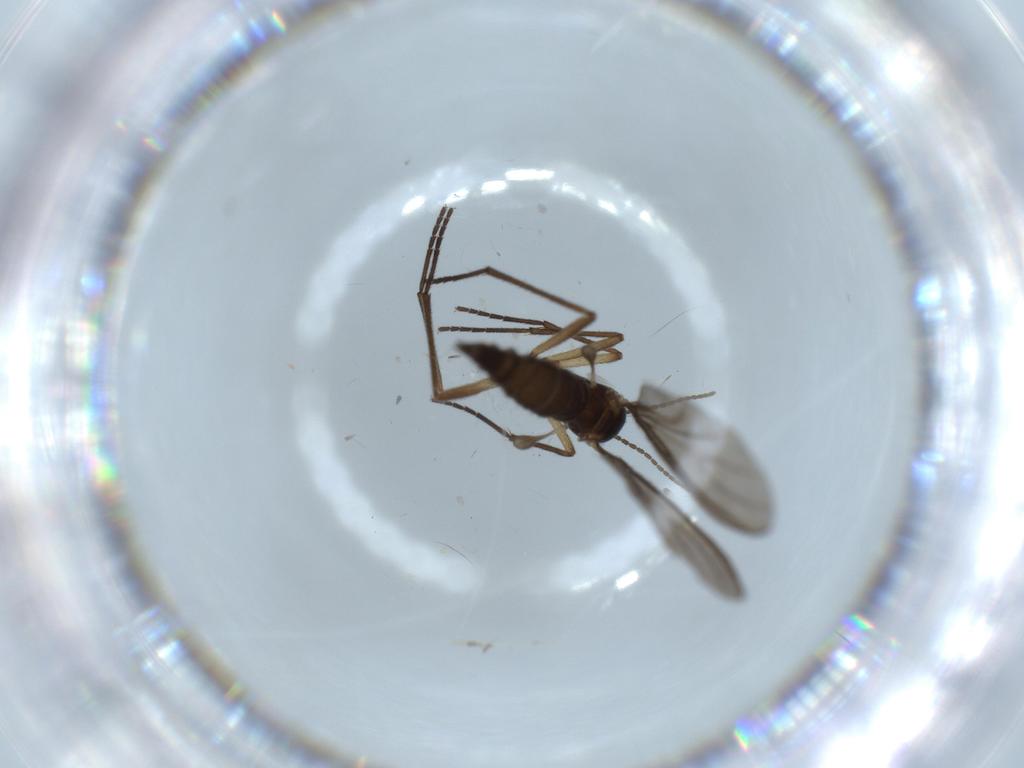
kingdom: Animalia
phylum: Arthropoda
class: Insecta
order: Diptera
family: Sciaridae
